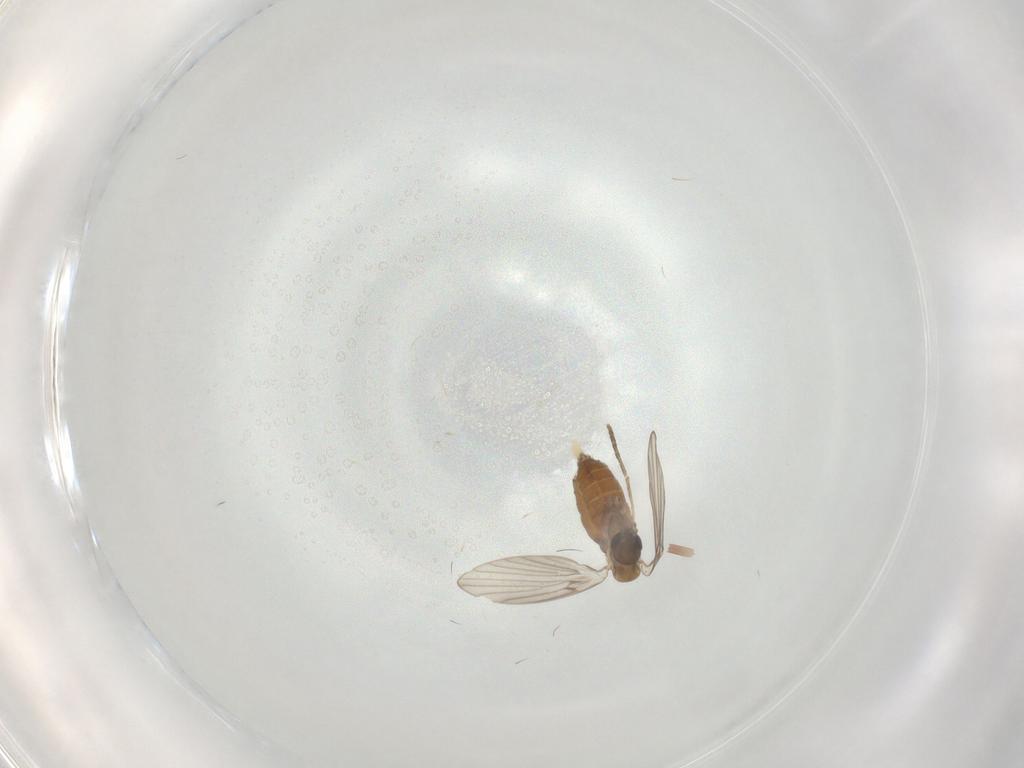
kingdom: Animalia
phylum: Arthropoda
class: Insecta
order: Diptera
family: Psychodidae
